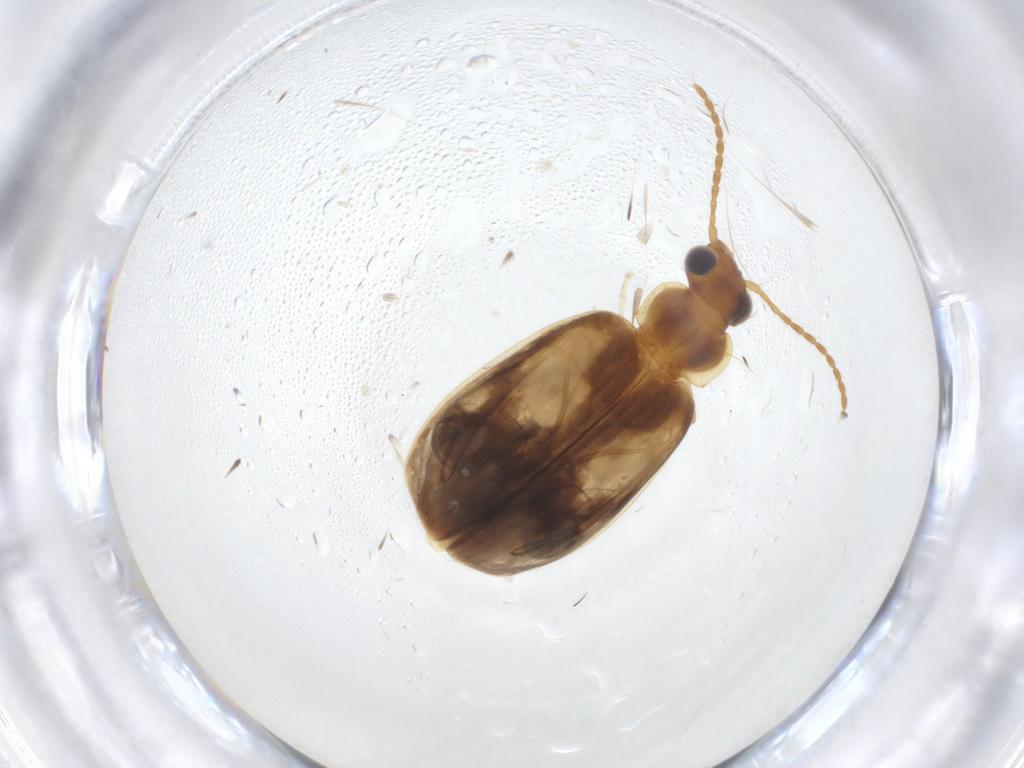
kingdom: Animalia
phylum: Arthropoda
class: Insecta
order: Coleoptera
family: Carabidae
